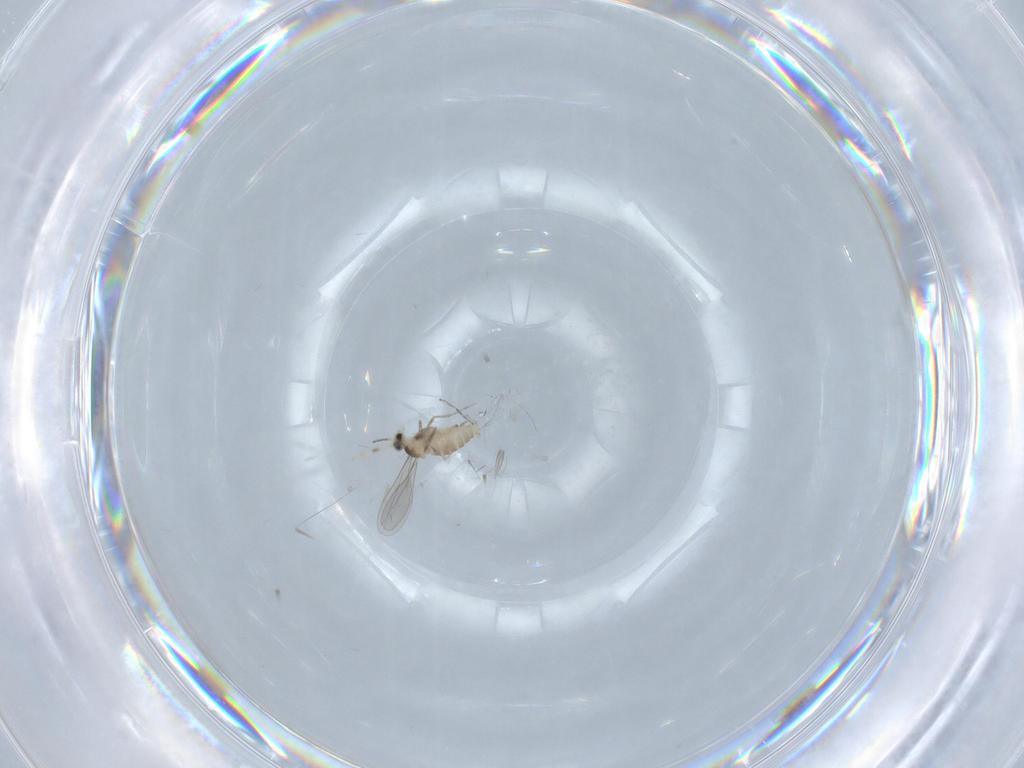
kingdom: Animalia
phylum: Arthropoda
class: Insecta
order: Diptera
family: Cecidomyiidae
